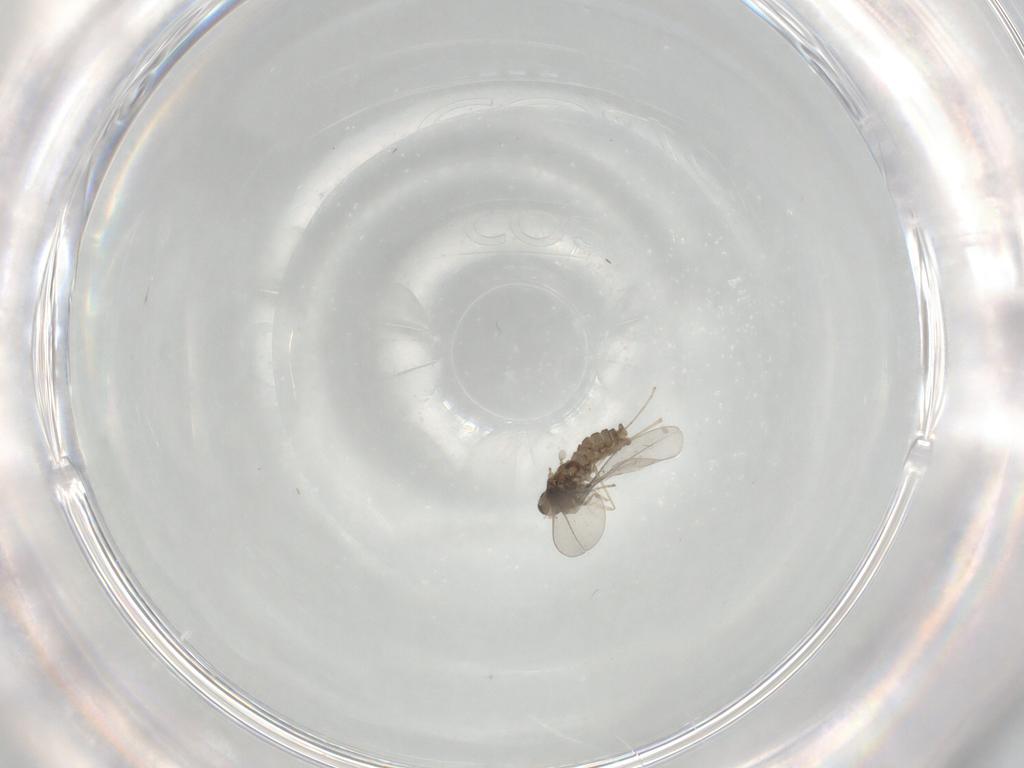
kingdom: Animalia
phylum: Arthropoda
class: Insecta
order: Diptera
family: Cecidomyiidae
